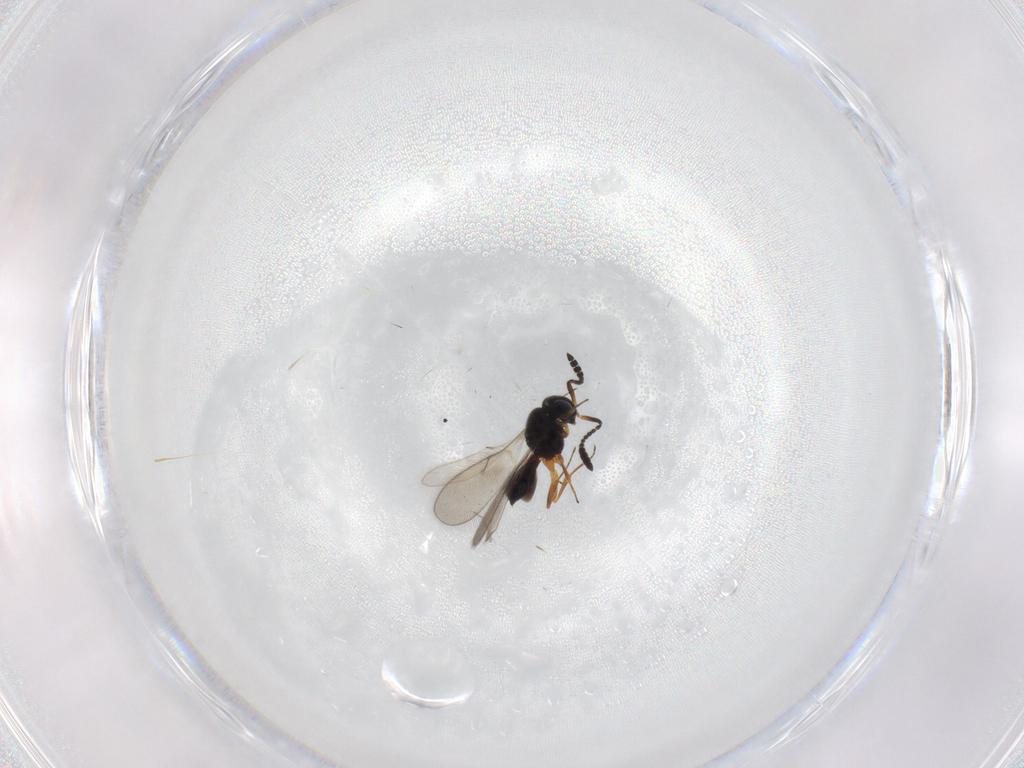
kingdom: Animalia
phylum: Arthropoda
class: Insecta
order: Hymenoptera
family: Scelionidae
